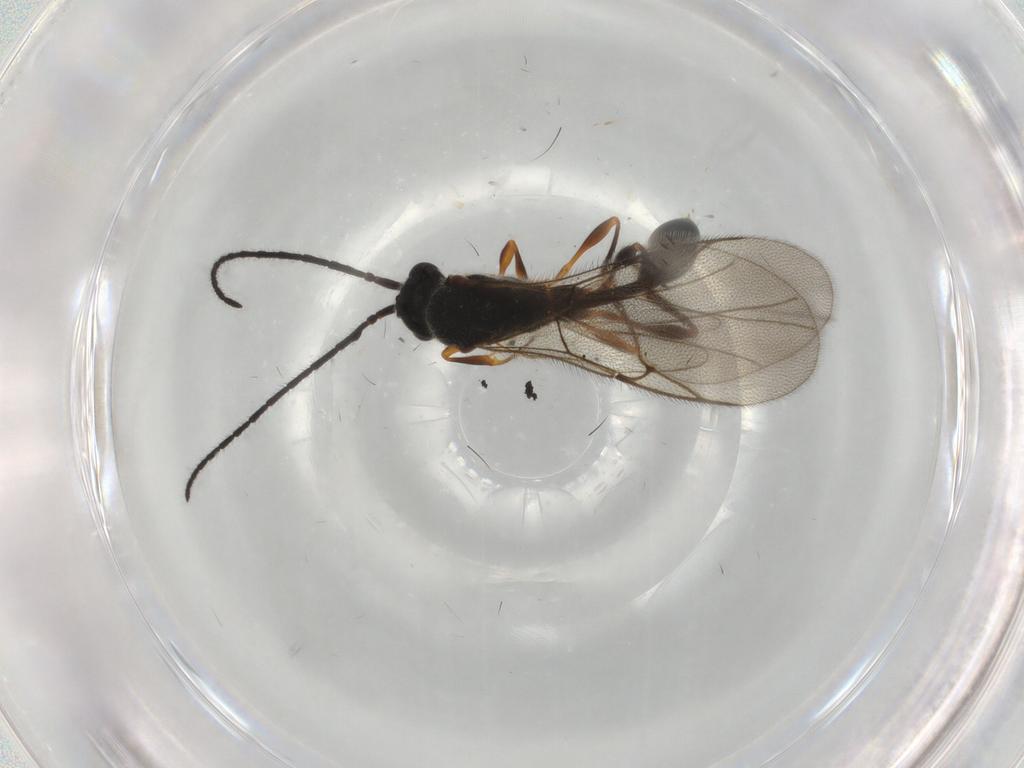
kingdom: Animalia
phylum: Arthropoda
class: Insecta
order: Hymenoptera
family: Diapriidae
